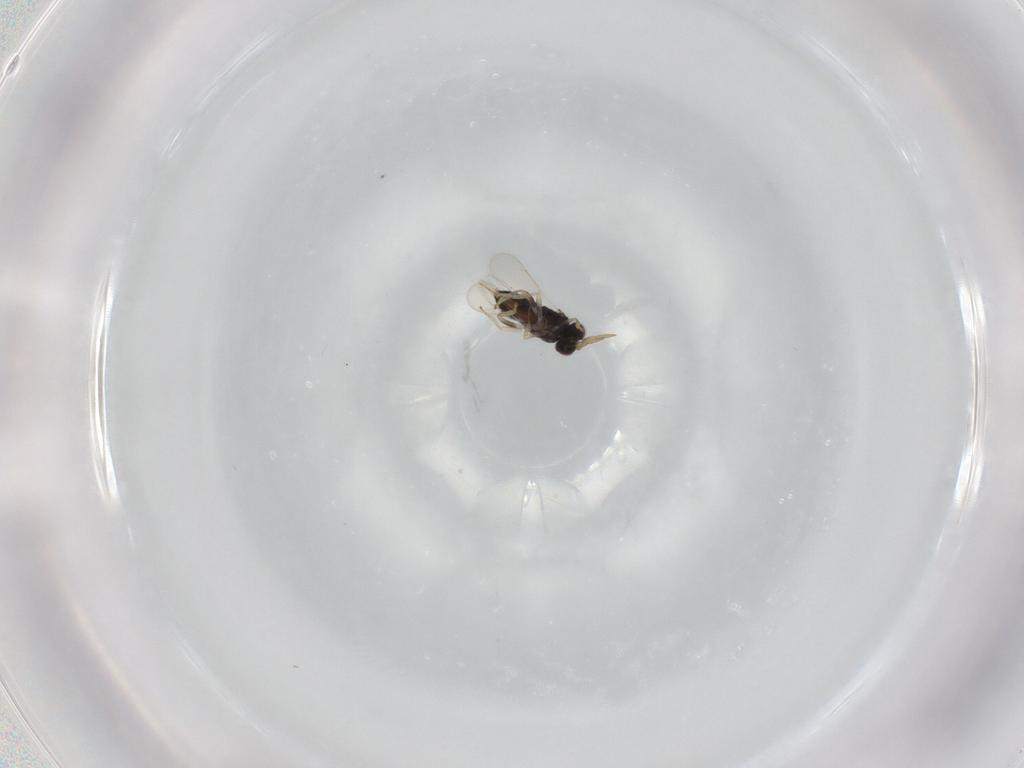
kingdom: Animalia
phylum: Arthropoda
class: Insecta
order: Hymenoptera
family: Aphelinidae
